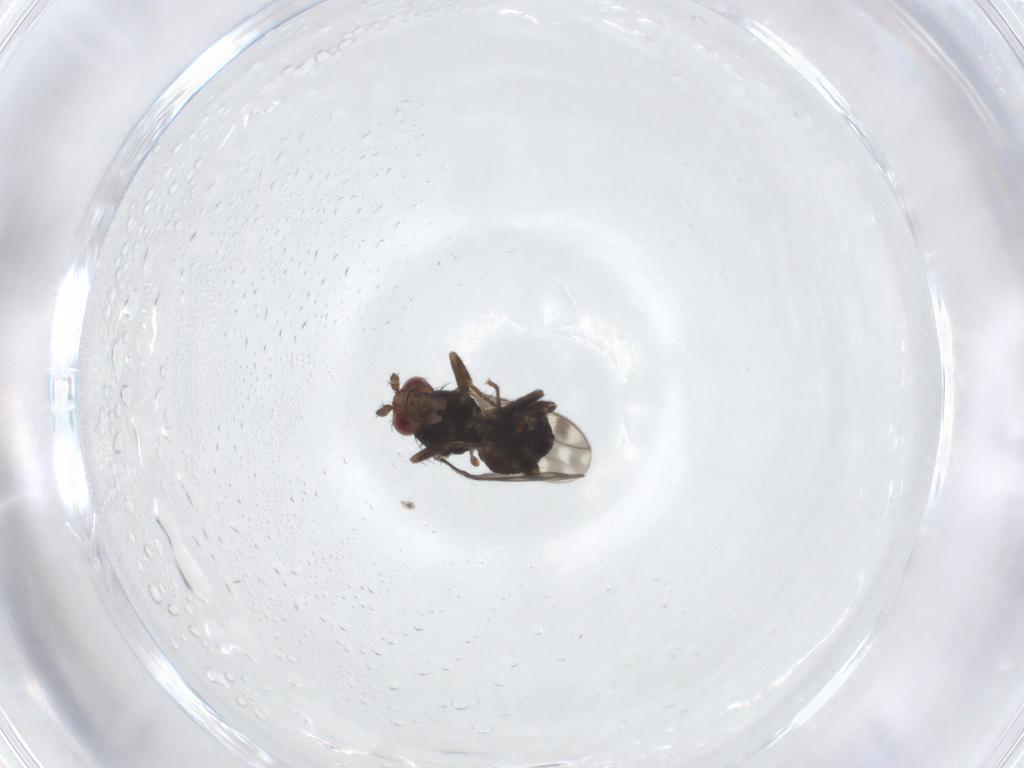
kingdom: Animalia
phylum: Arthropoda
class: Insecta
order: Diptera
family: Sphaeroceridae
